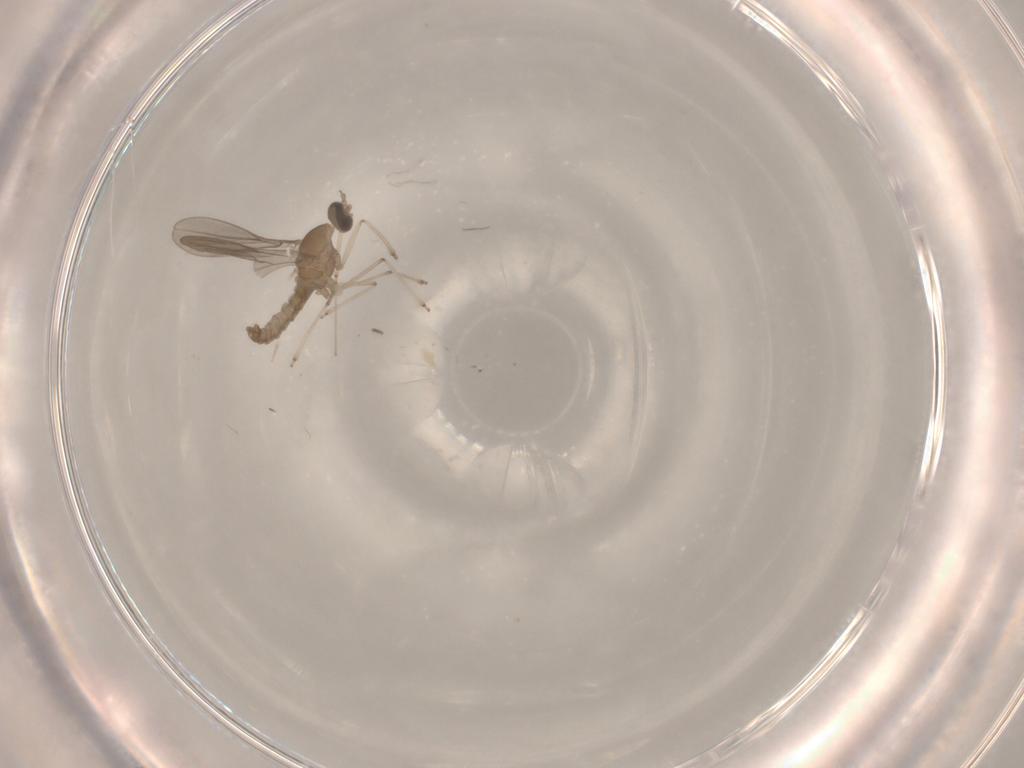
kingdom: Animalia
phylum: Arthropoda
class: Insecta
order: Diptera
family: Cecidomyiidae
